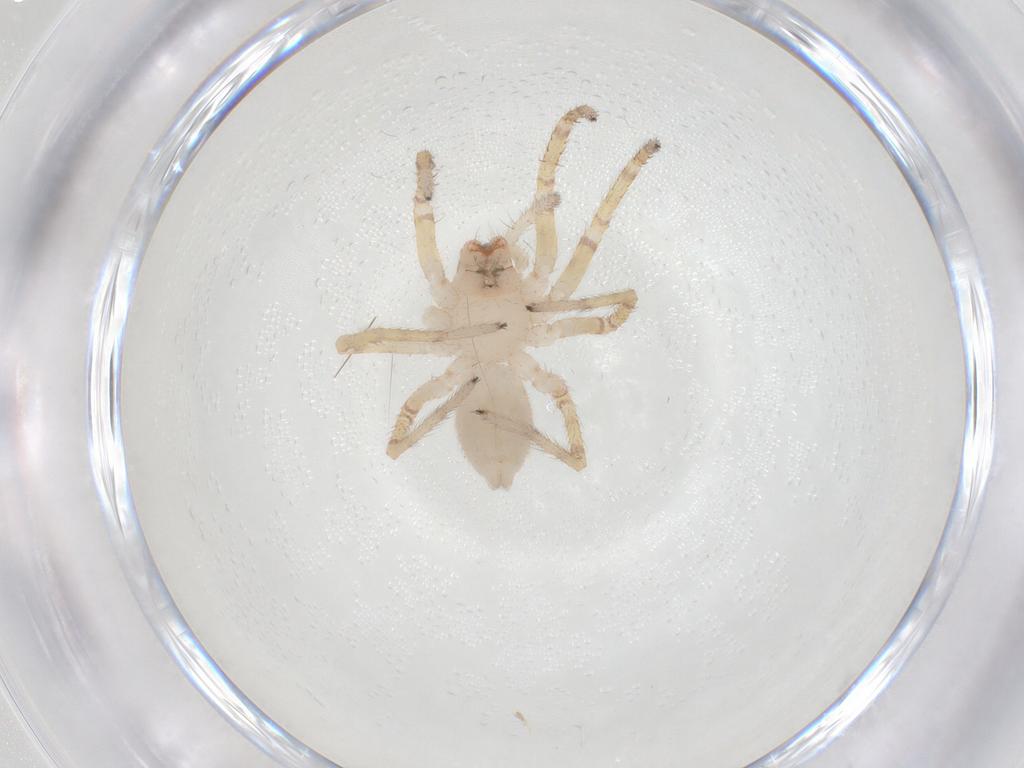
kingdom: Animalia
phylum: Arthropoda
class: Arachnida
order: Araneae
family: Corinnidae
